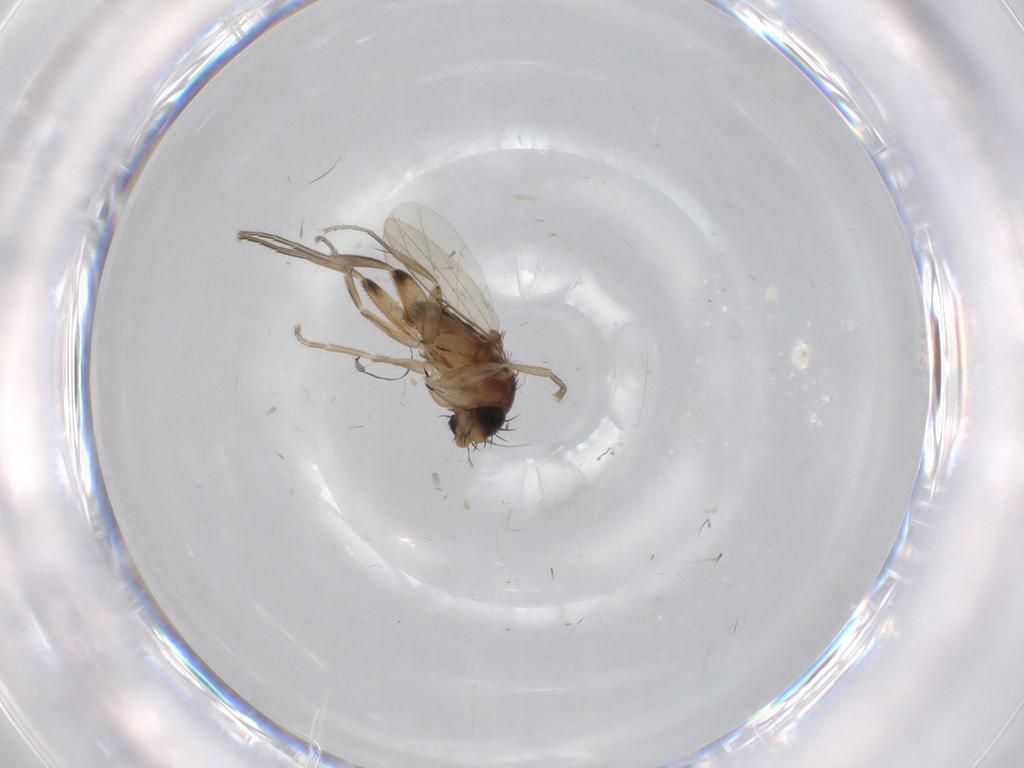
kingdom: Animalia
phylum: Arthropoda
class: Insecta
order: Diptera
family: Phoridae
